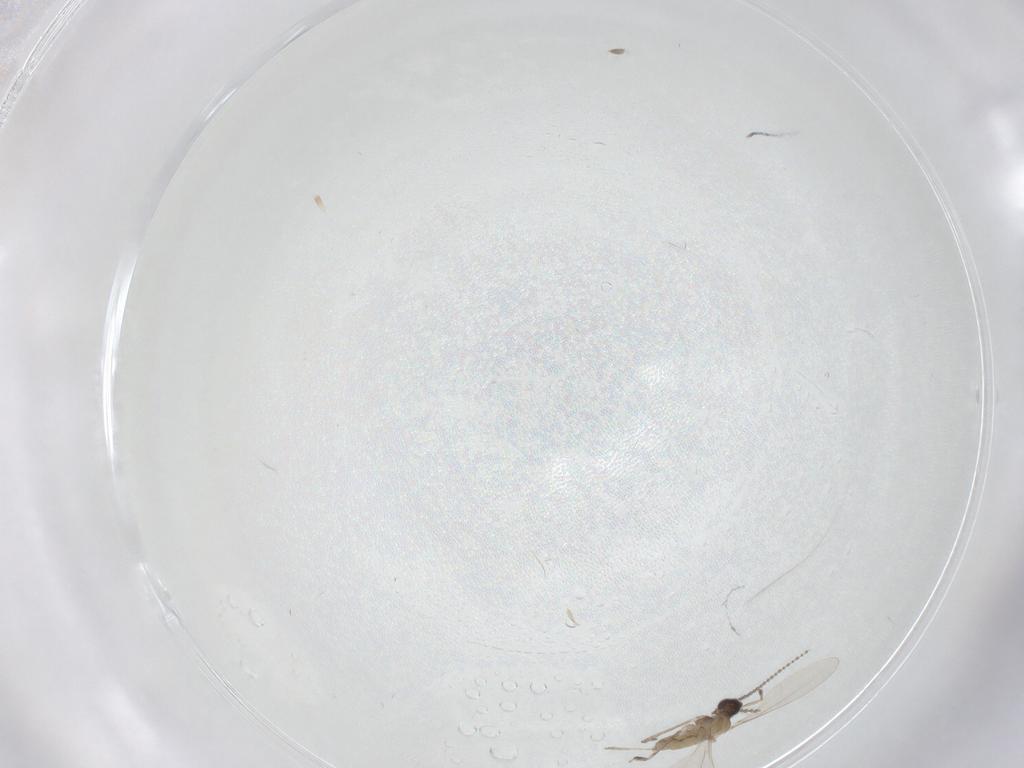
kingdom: Animalia
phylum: Arthropoda
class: Insecta
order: Diptera
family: Cecidomyiidae
